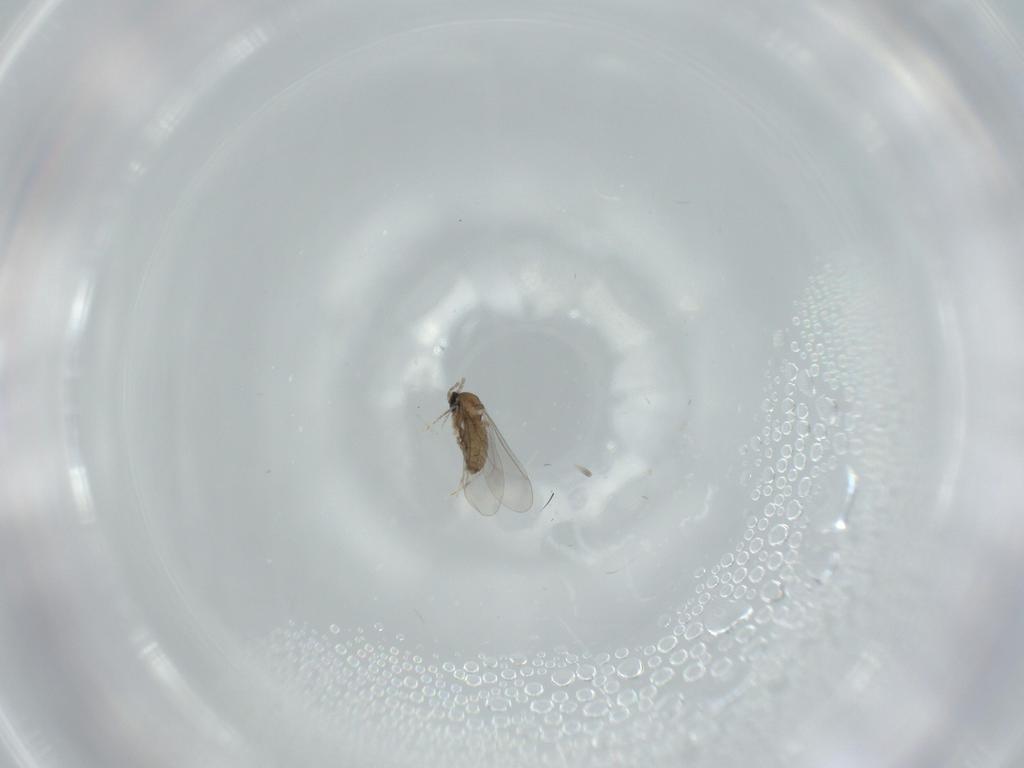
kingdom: Animalia
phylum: Arthropoda
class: Insecta
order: Diptera
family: Cecidomyiidae
